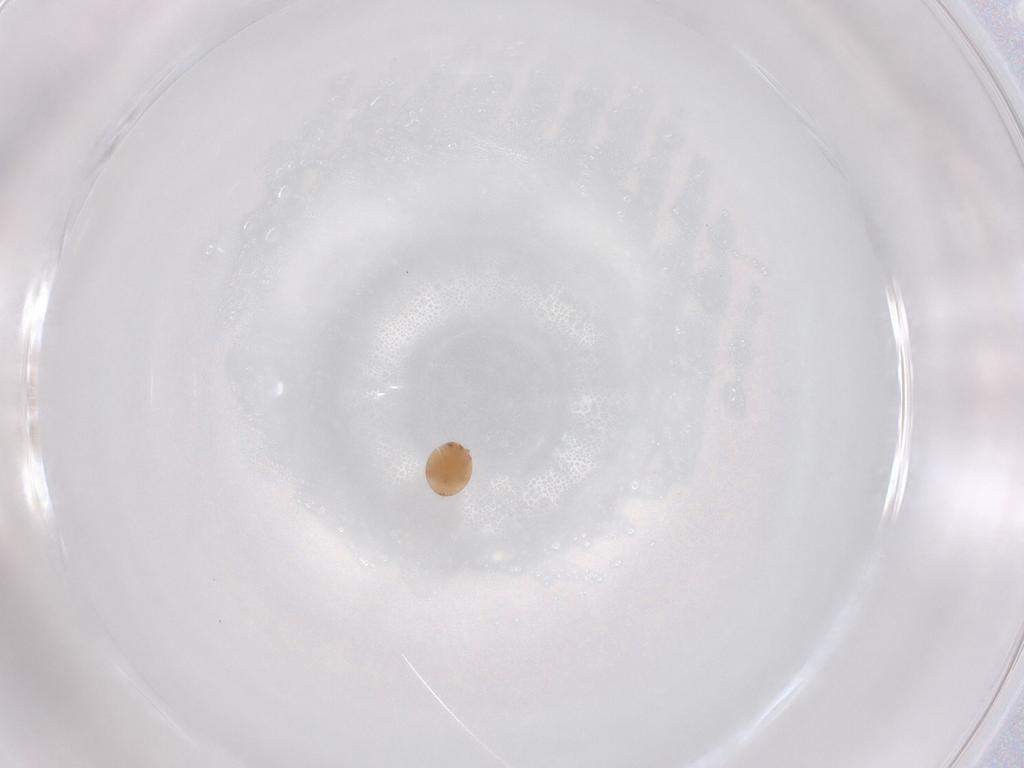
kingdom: Animalia
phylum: Arthropoda
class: Arachnida
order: Mesostigmata
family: Trematuridae
